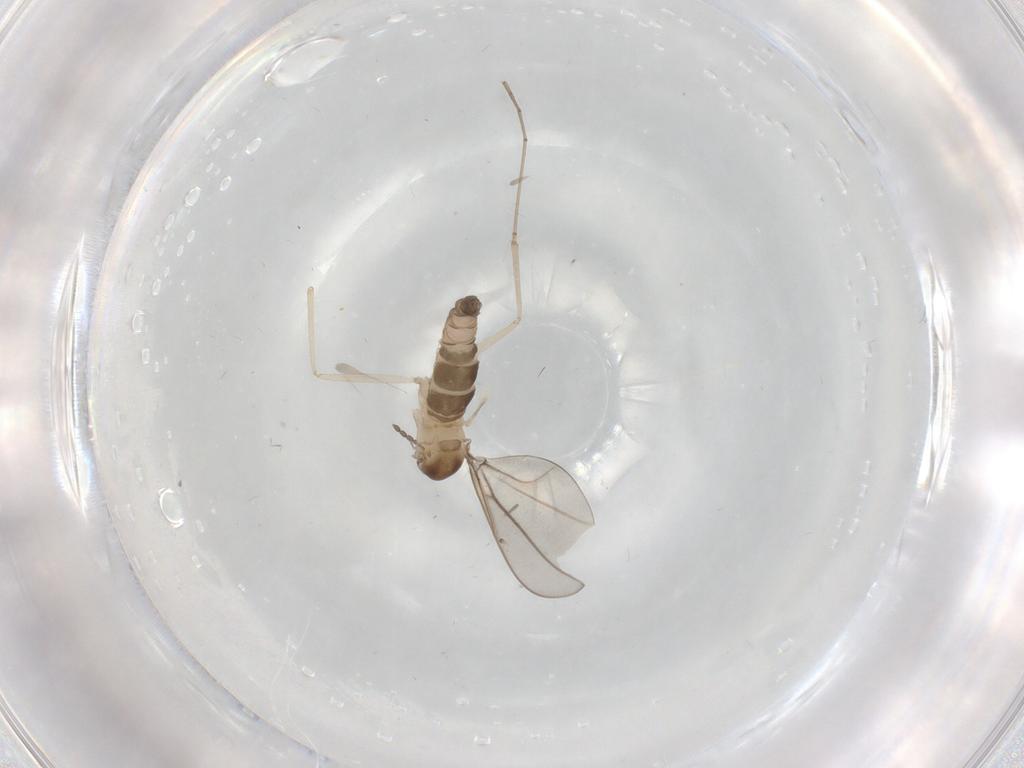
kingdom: Animalia
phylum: Arthropoda
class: Insecta
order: Diptera
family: Cecidomyiidae
